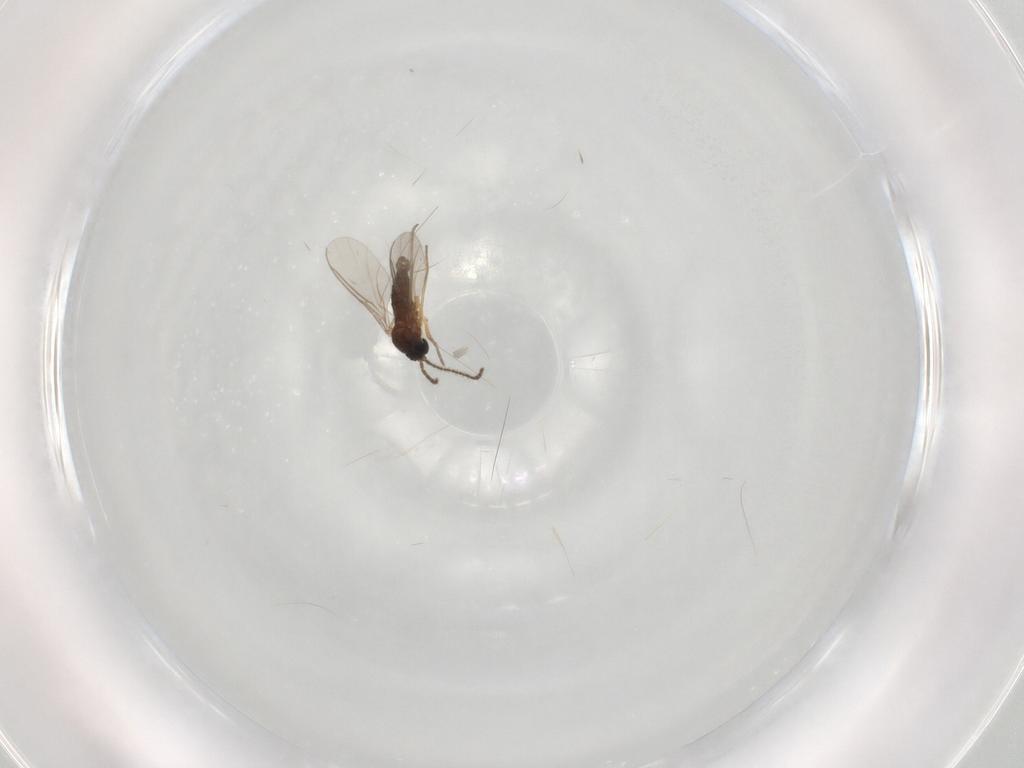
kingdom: Animalia
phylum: Arthropoda
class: Insecta
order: Diptera
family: Sciaridae
